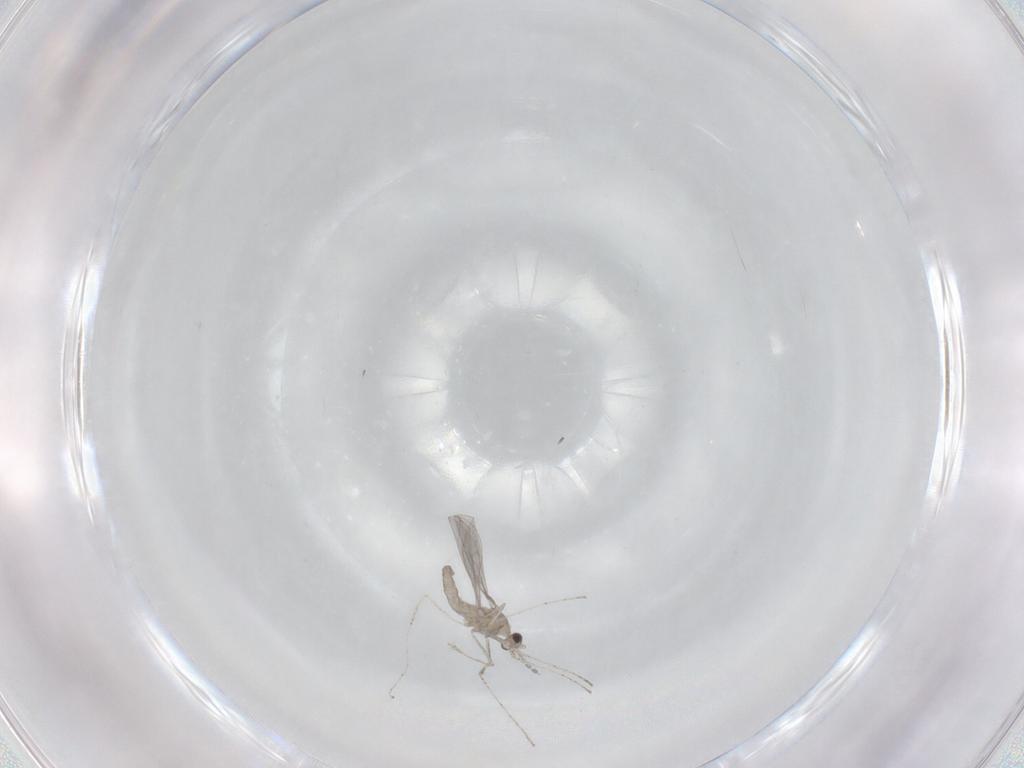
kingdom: Animalia
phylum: Arthropoda
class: Insecta
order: Diptera
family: Cecidomyiidae
